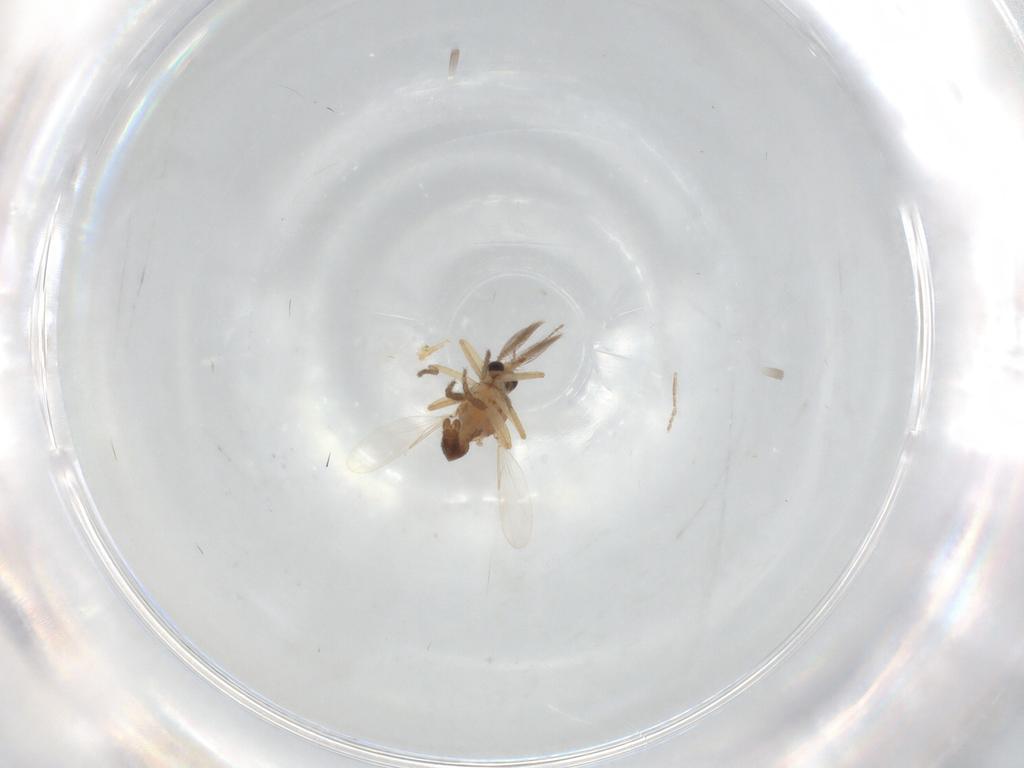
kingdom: Animalia
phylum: Arthropoda
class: Insecta
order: Diptera
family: Ceratopogonidae
